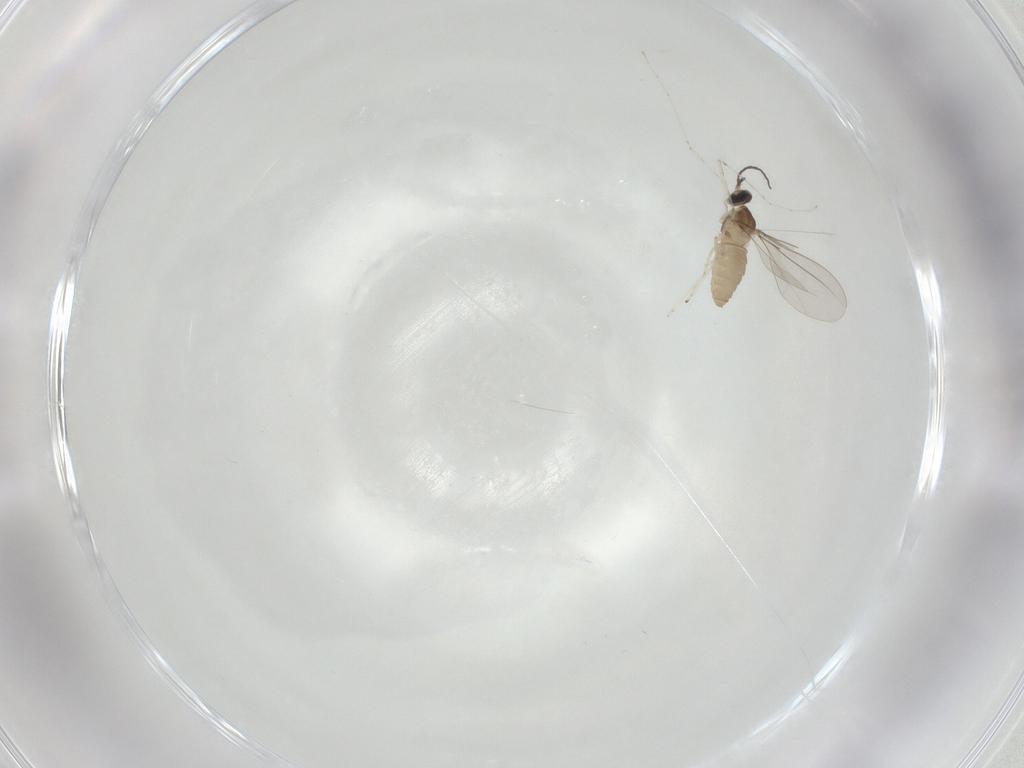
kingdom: Animalia
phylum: Arthropoda
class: Insecta
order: Diptera
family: Cecidomyiidae
